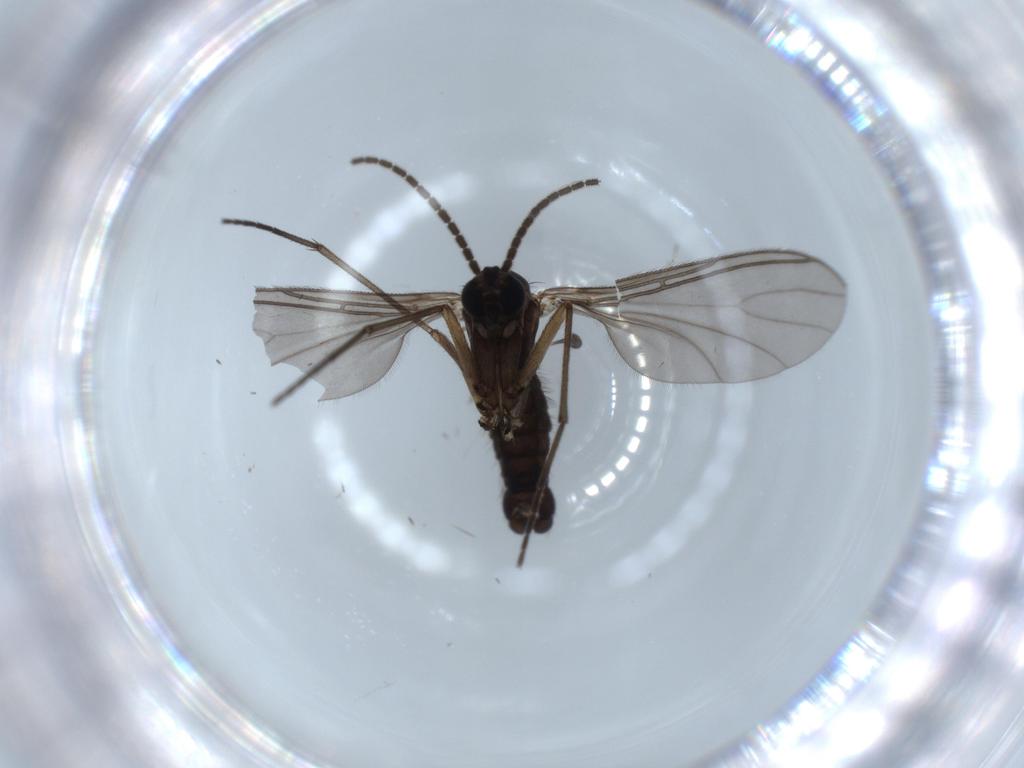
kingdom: Animalia
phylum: Arthropoda
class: Insecta
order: Diptera
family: Sciaridae
